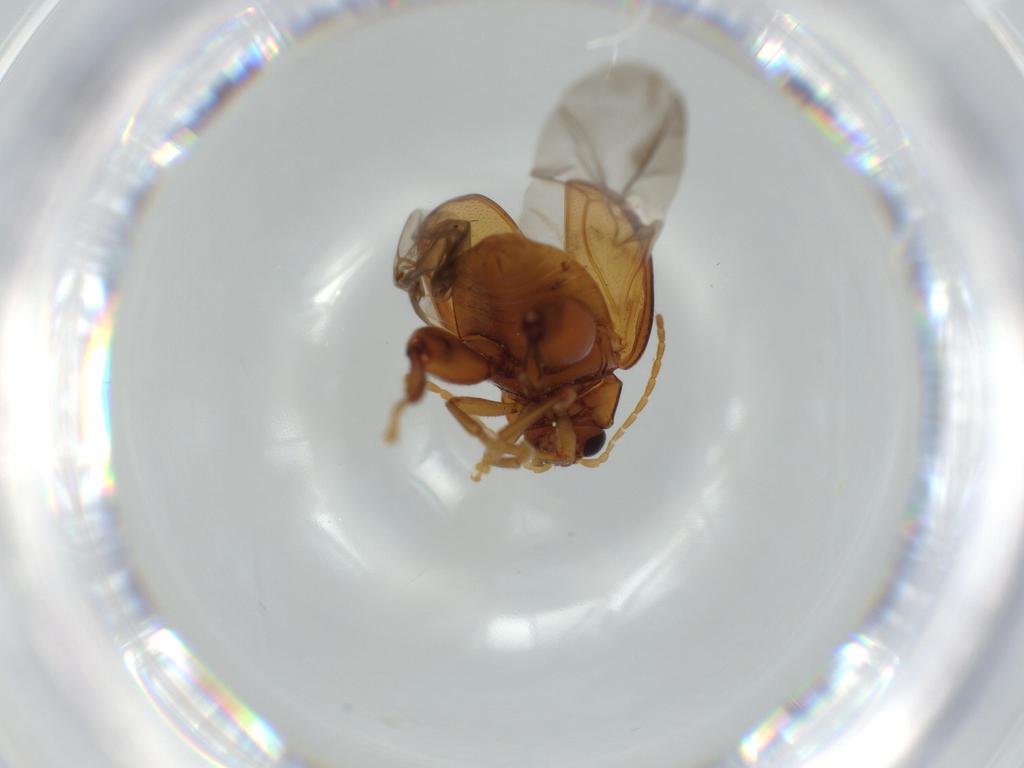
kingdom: Animalia
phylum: Arthropoda
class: Insecta
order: Coleoptera
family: Chrysomelidae
